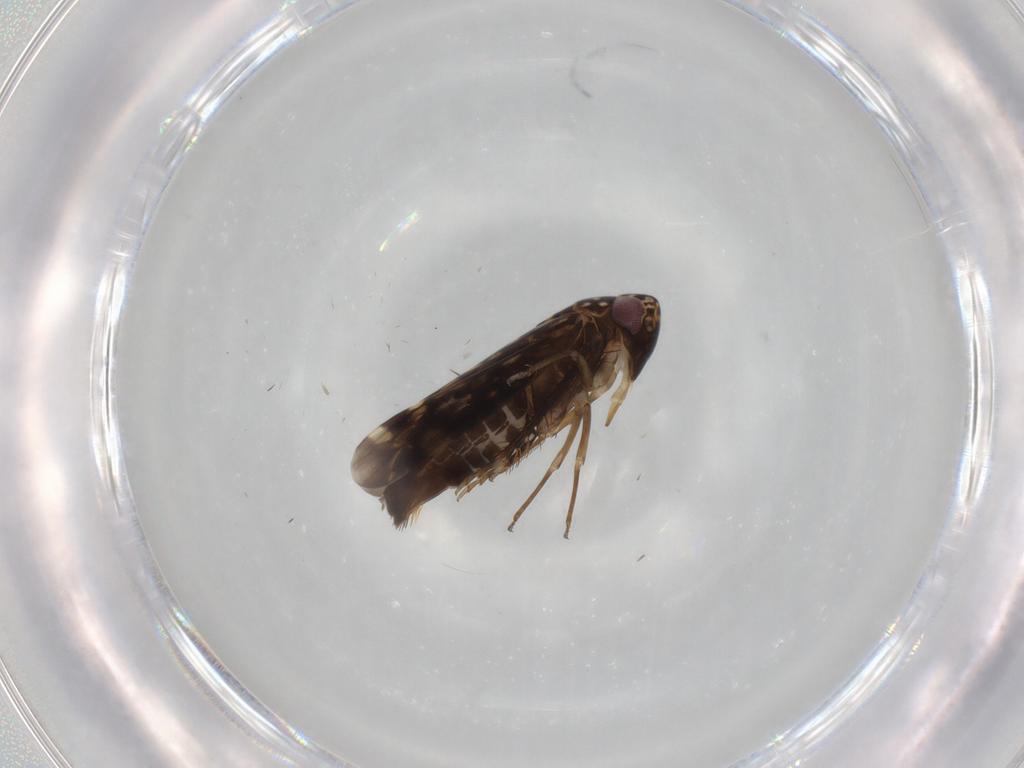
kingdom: Animalia
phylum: Arthropoda
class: Insecta
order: Hemiptera
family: Cicadellidae
